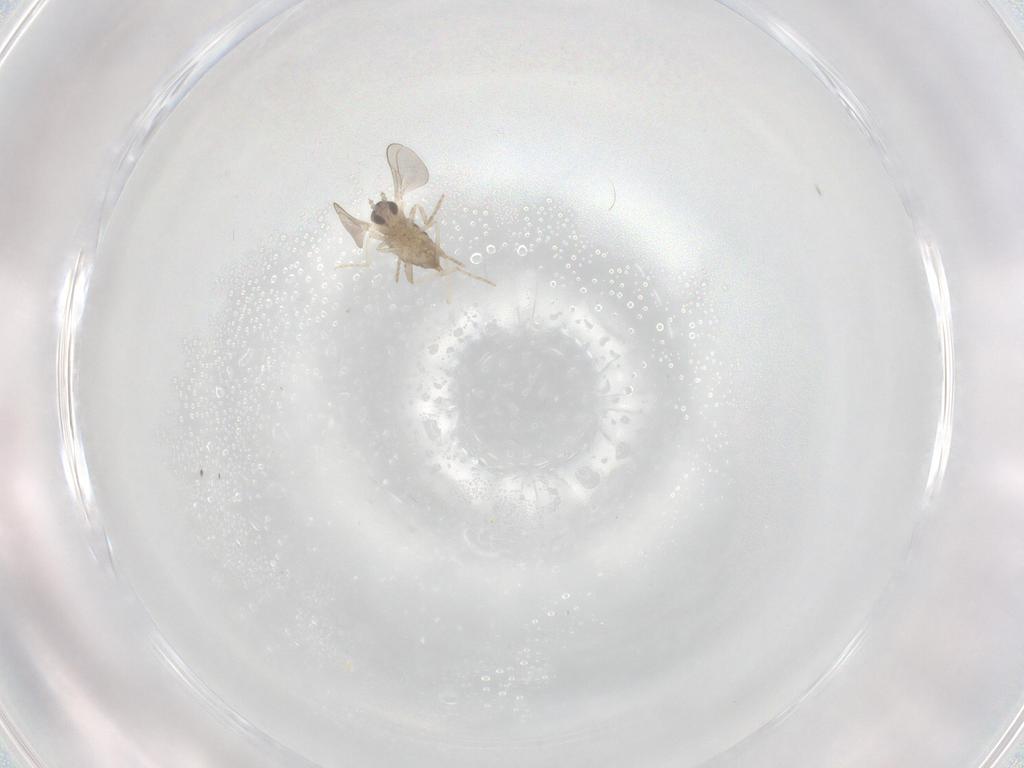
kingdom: Animalia
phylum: Arthropoda
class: Insecta
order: Diptera
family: Cecidomyiidae
